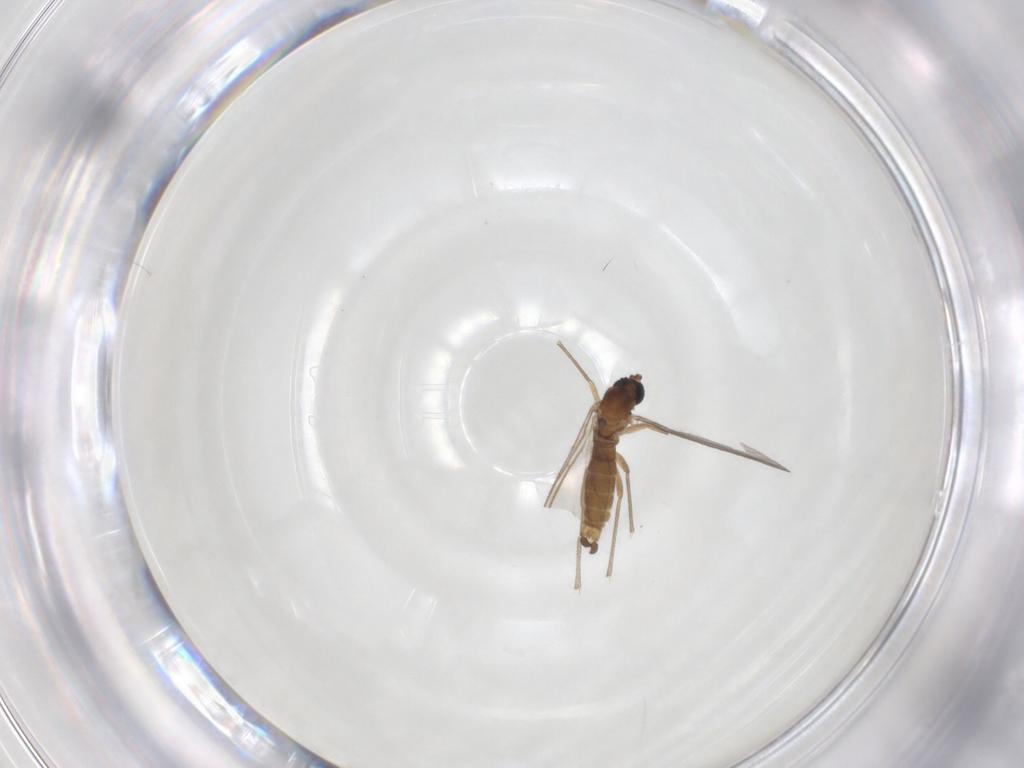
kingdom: Animalia
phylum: Arthropoda
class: Insecta
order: Diptera
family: Sciaridae
